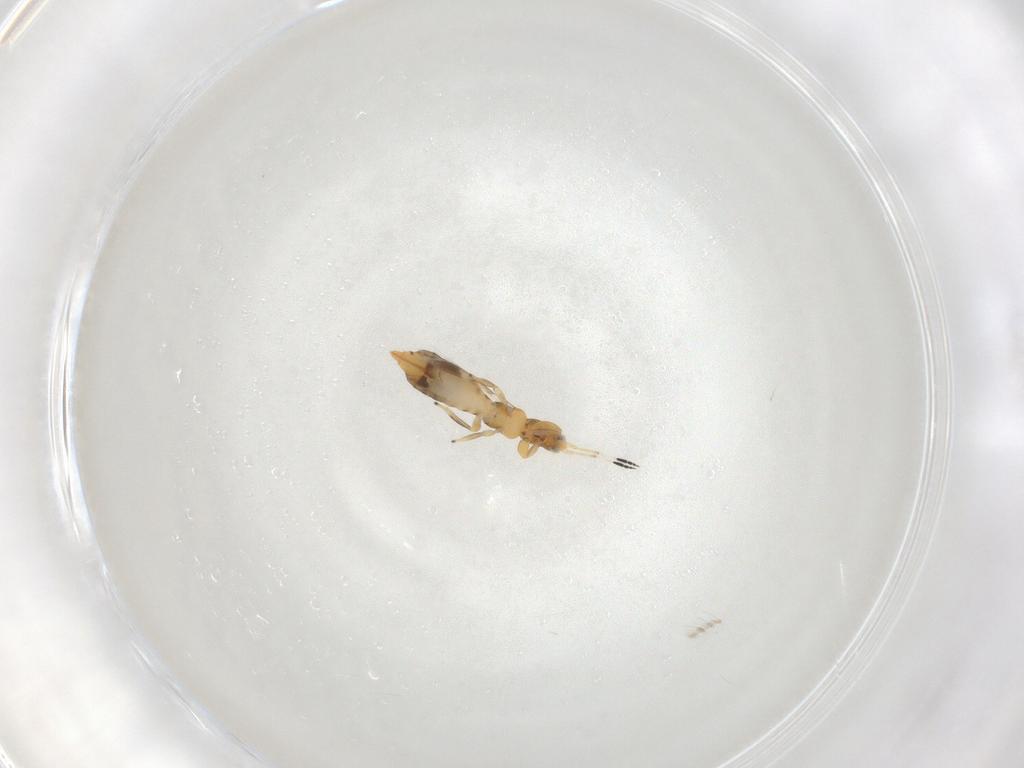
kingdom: Animalia
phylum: Arthropoda
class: Insecta
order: Thysanoptera
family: Aeolothripidae
